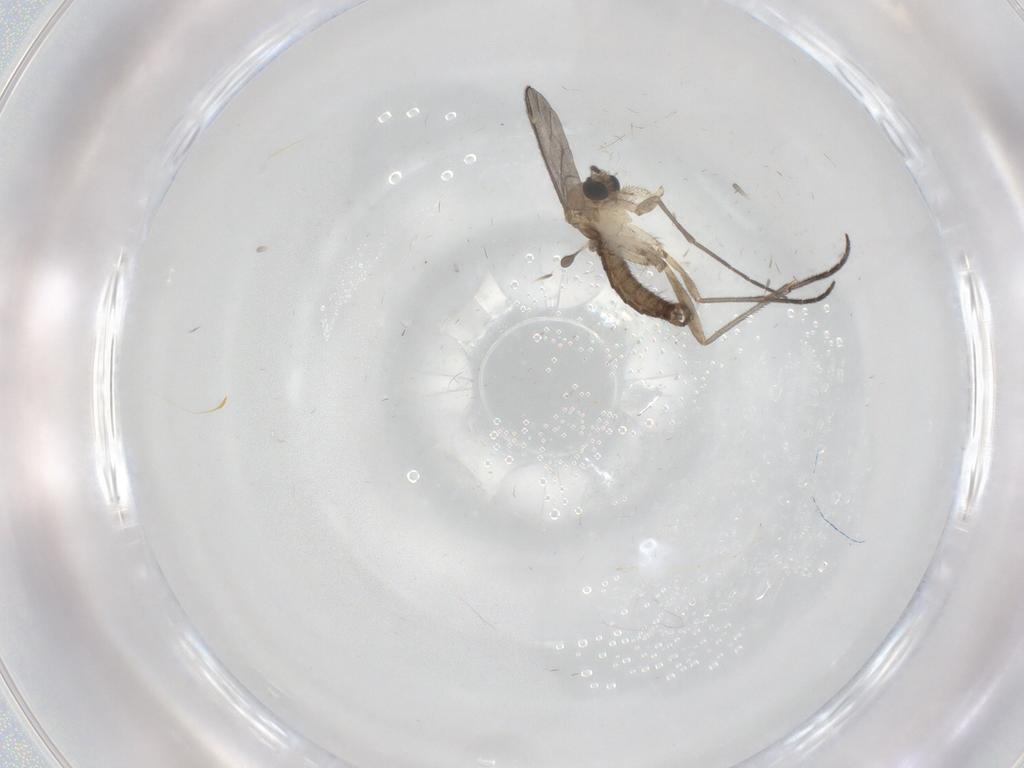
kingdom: Animalia
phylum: Arthropoda
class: Insecta
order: Diptera
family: Sciaridae
